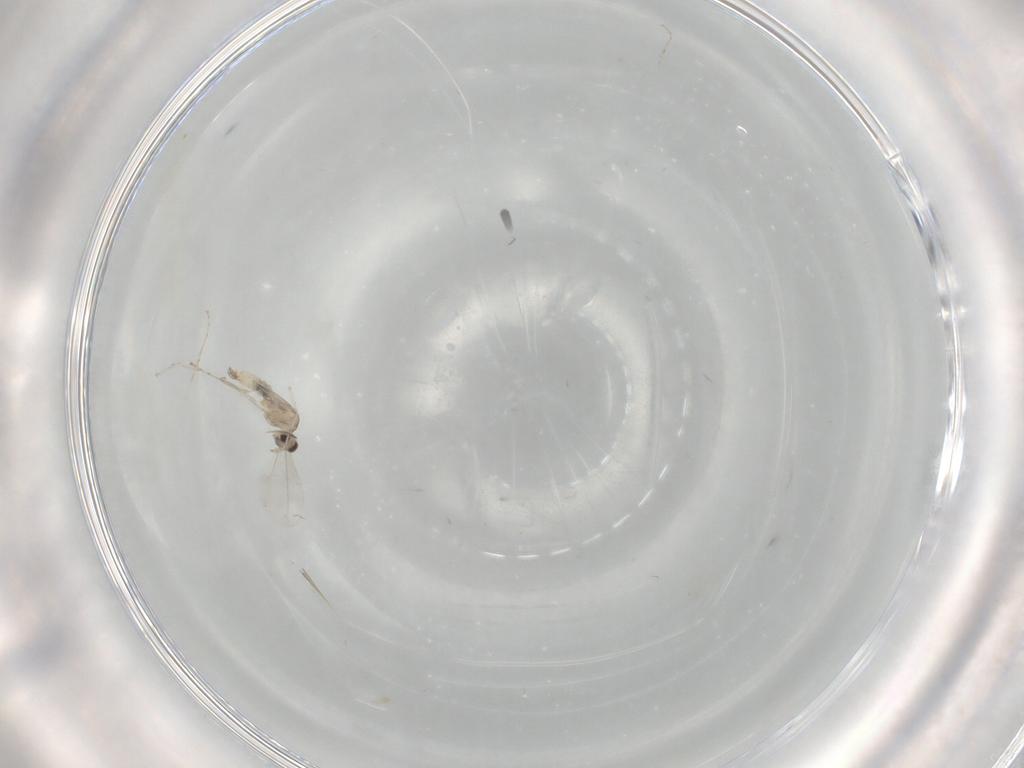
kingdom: Animalia
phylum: Arthropoda
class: Insecta
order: Diptera
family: Cecidomyiidae
